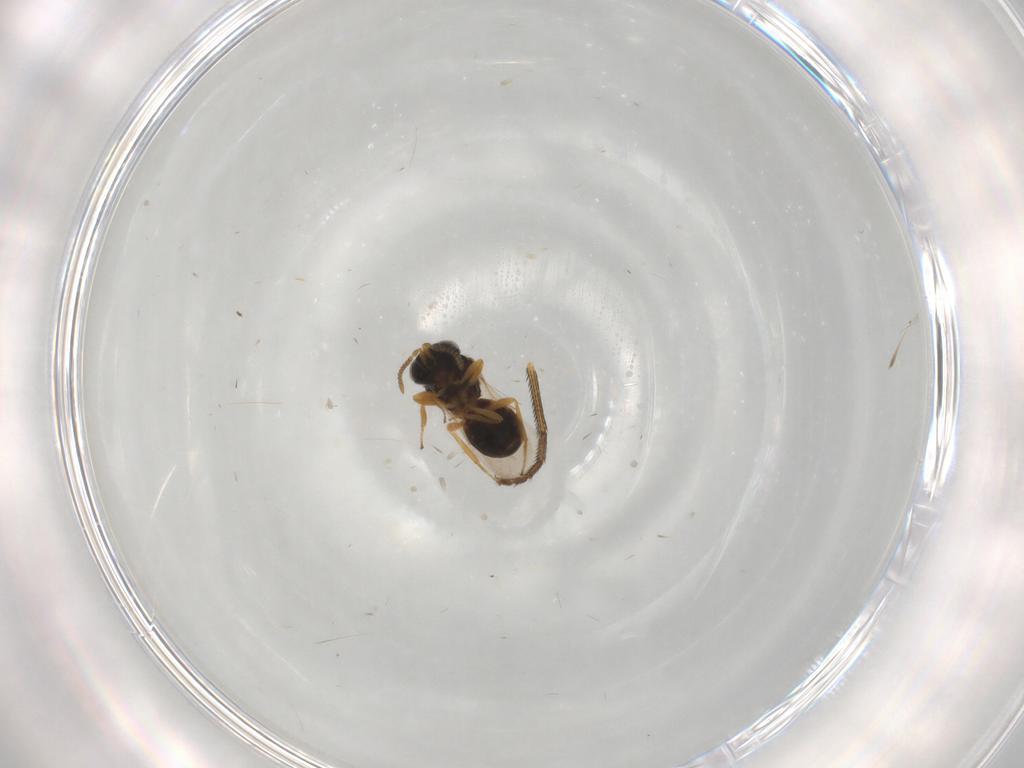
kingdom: Animalia
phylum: Arthropoda
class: Insecta
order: Hymenoptera
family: Scelionidae
